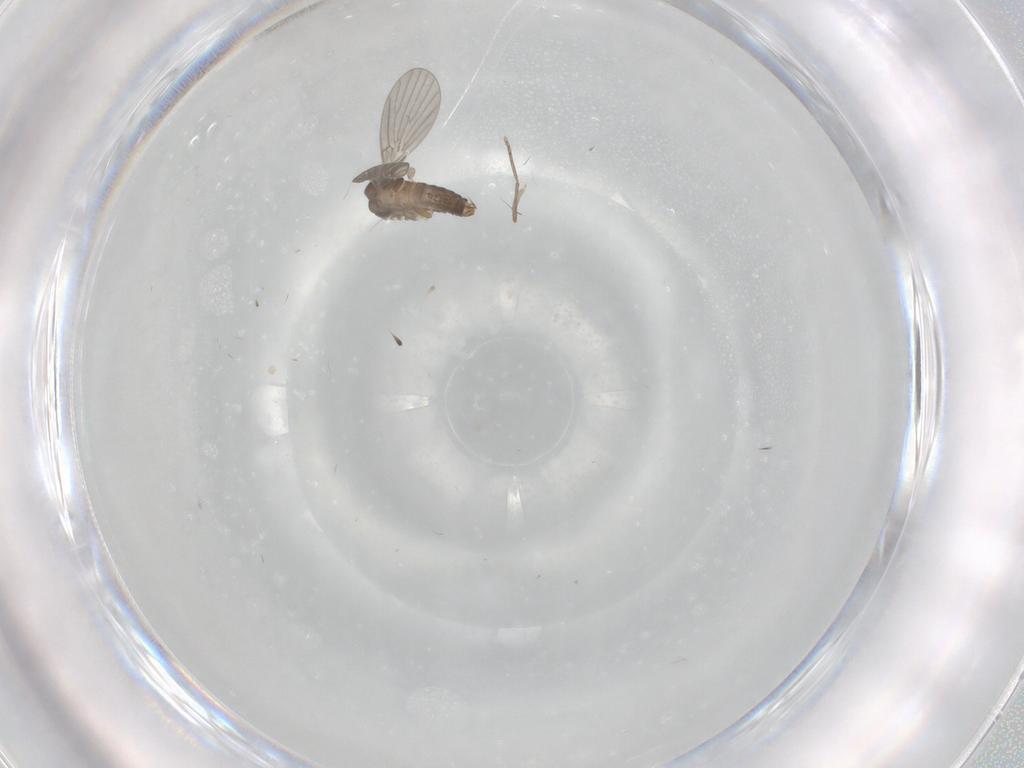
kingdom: Animalia
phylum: Arthropoda
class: Insecta
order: Diptera
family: Cecidomyiidae
